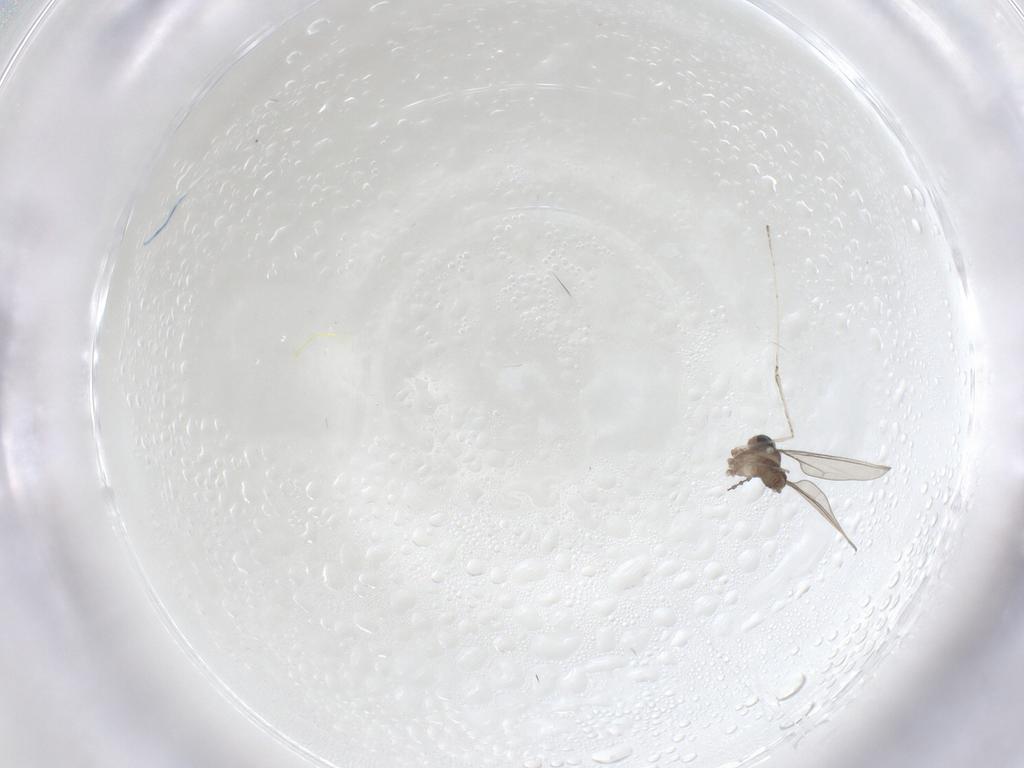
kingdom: Animalia
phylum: Arthropoda
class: Insecta
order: Diptera
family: Cecidomyiidae
